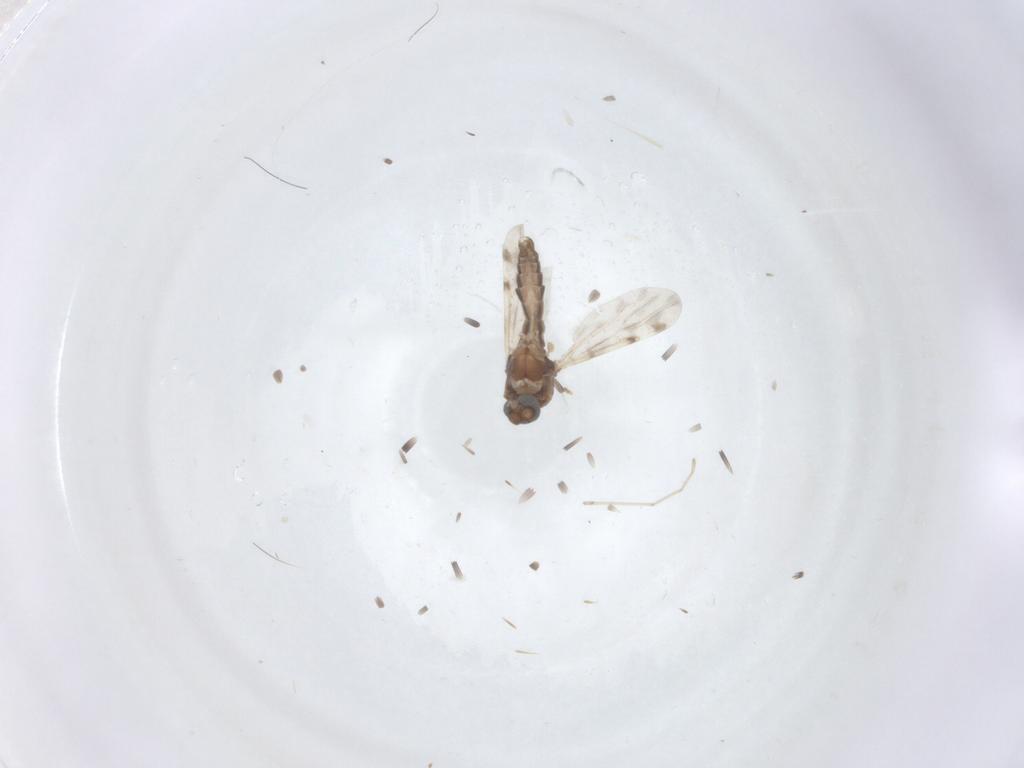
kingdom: Animalia
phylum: Arthropoda
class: Insecta
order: Diptera
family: Cecidomyiidae
